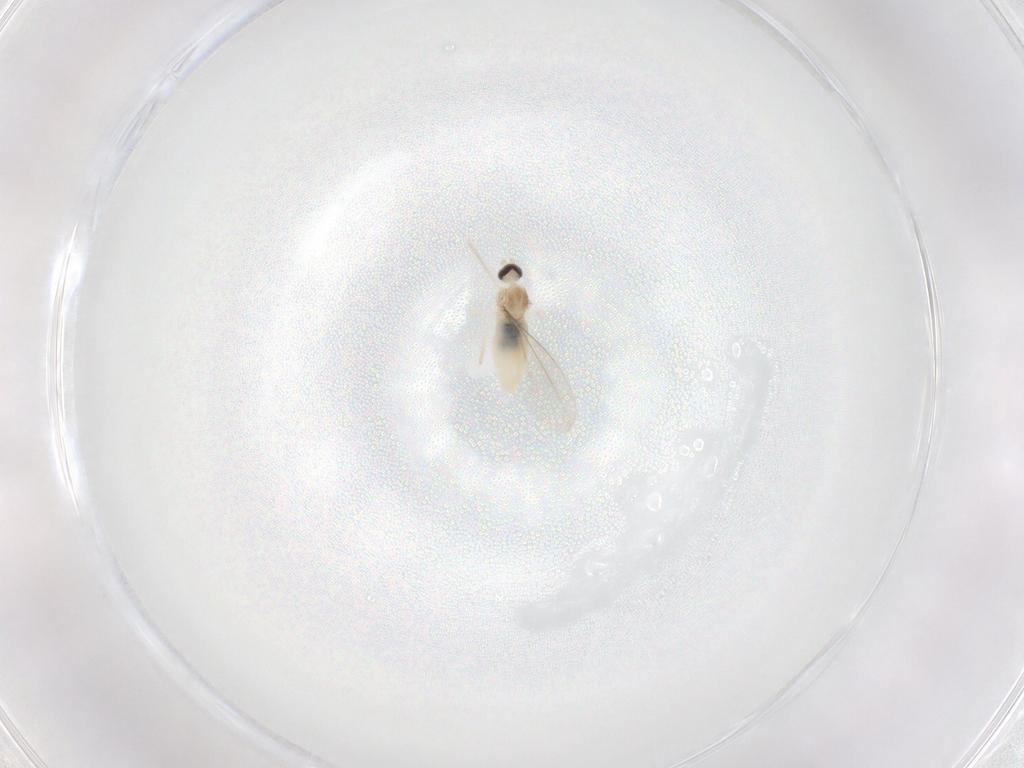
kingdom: Animalia
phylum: Arthropoda
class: Insecta
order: Diptera
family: Cecidomyiidae
